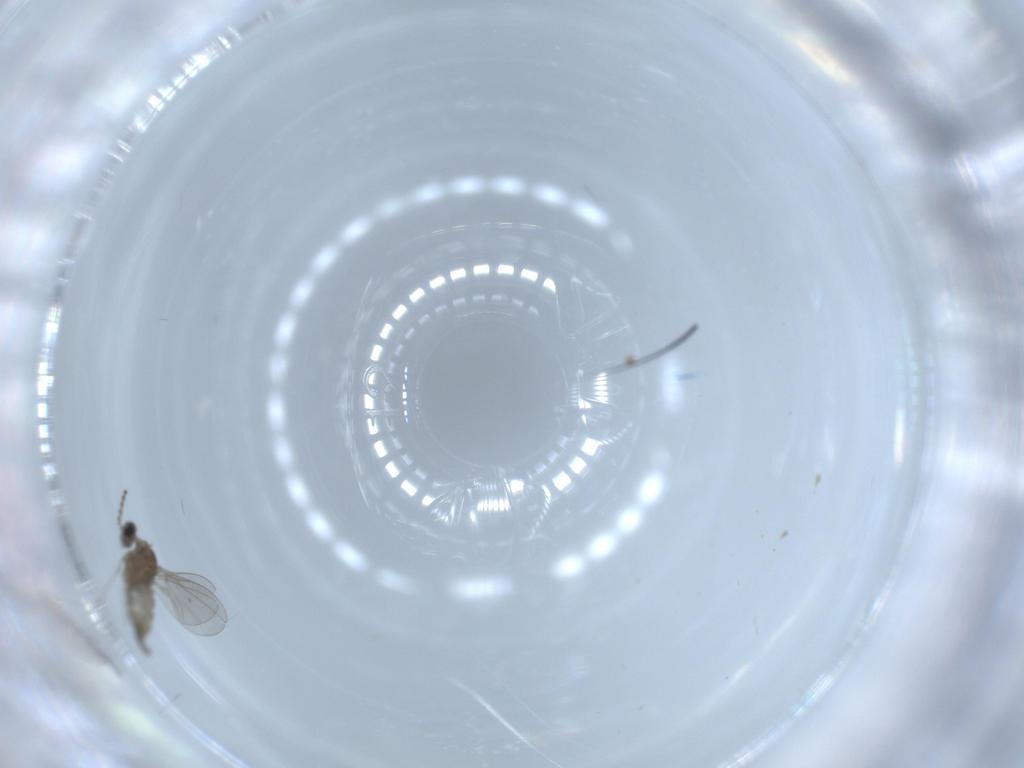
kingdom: Animalia
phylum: Arthropoda
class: Insecta
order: Diptera
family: Cecidomyiidae
